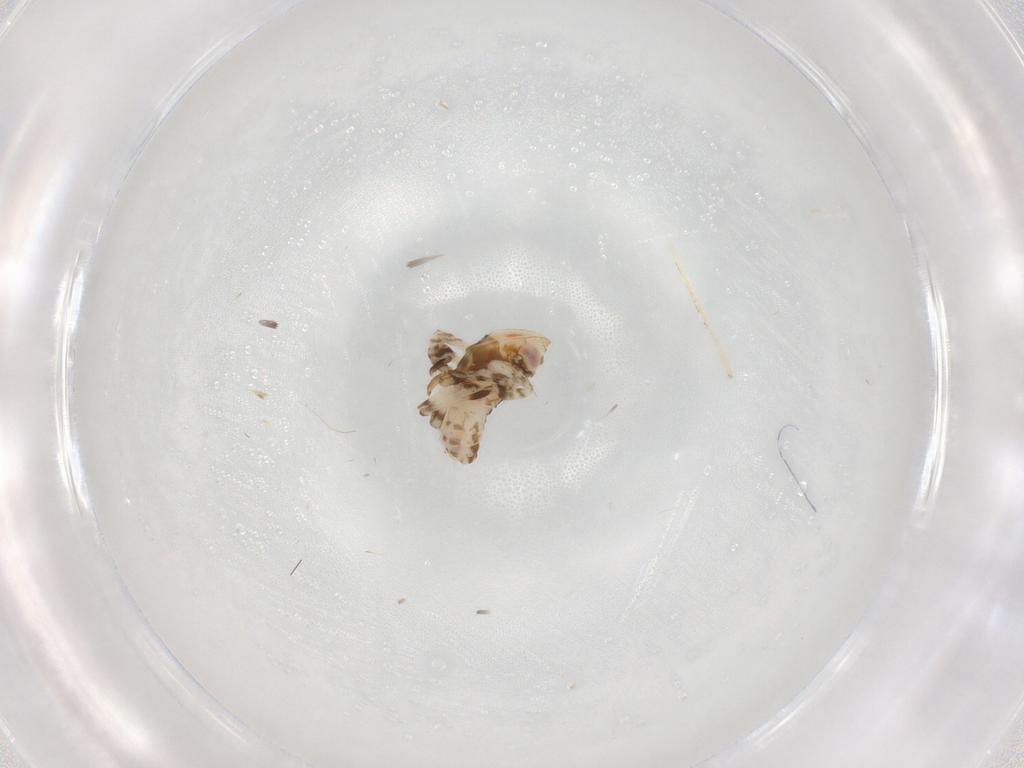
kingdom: Animalia
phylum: Arthropoda
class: Insecta
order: Hemiptera
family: Lophopidae
